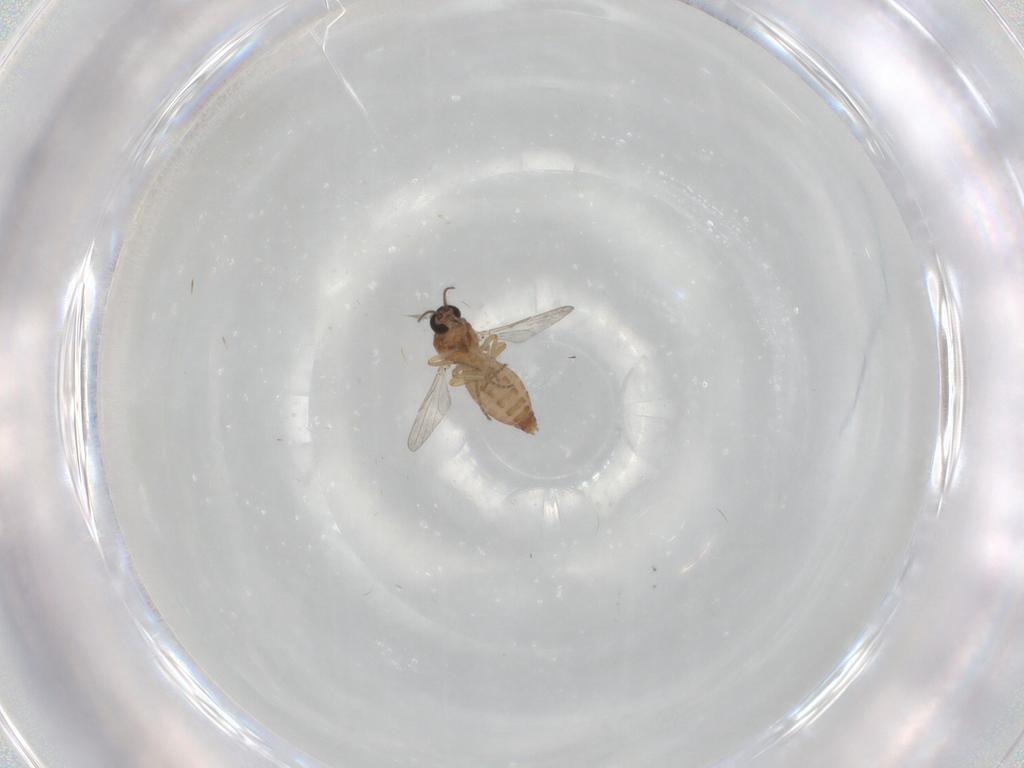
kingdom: Animalia
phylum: Arthropoda
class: Insecta
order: Diptera
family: Ceratopogonidae
